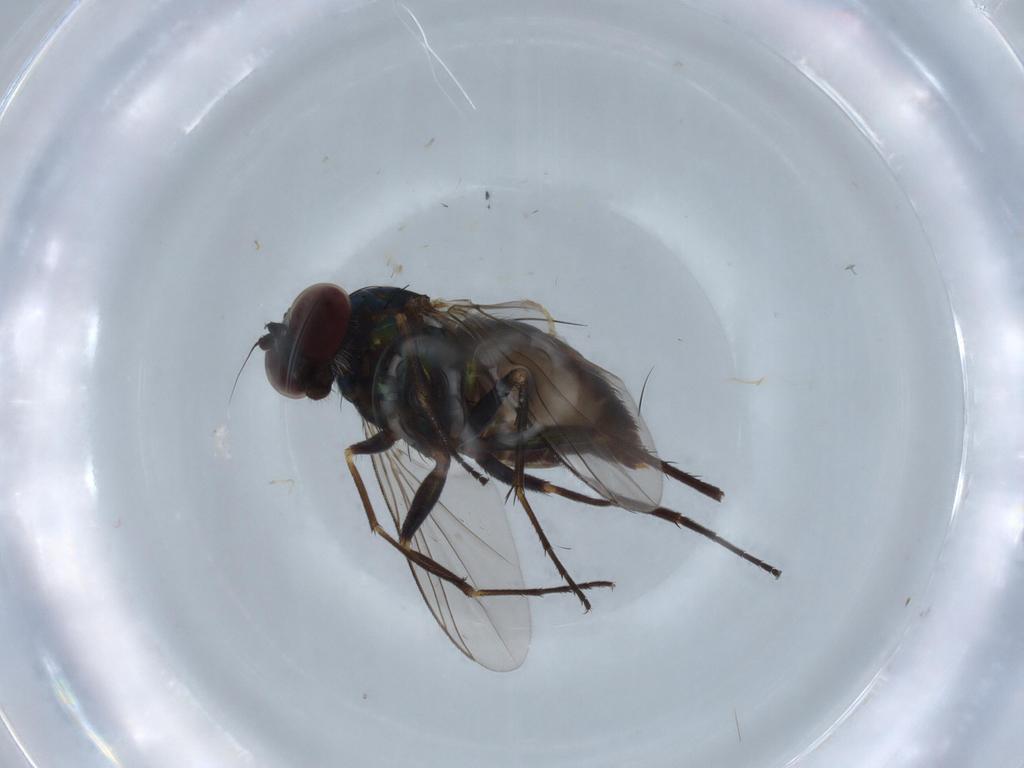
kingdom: Animalia
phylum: Arthropoda
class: Insecta
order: Diptera
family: Dolichopodidae
